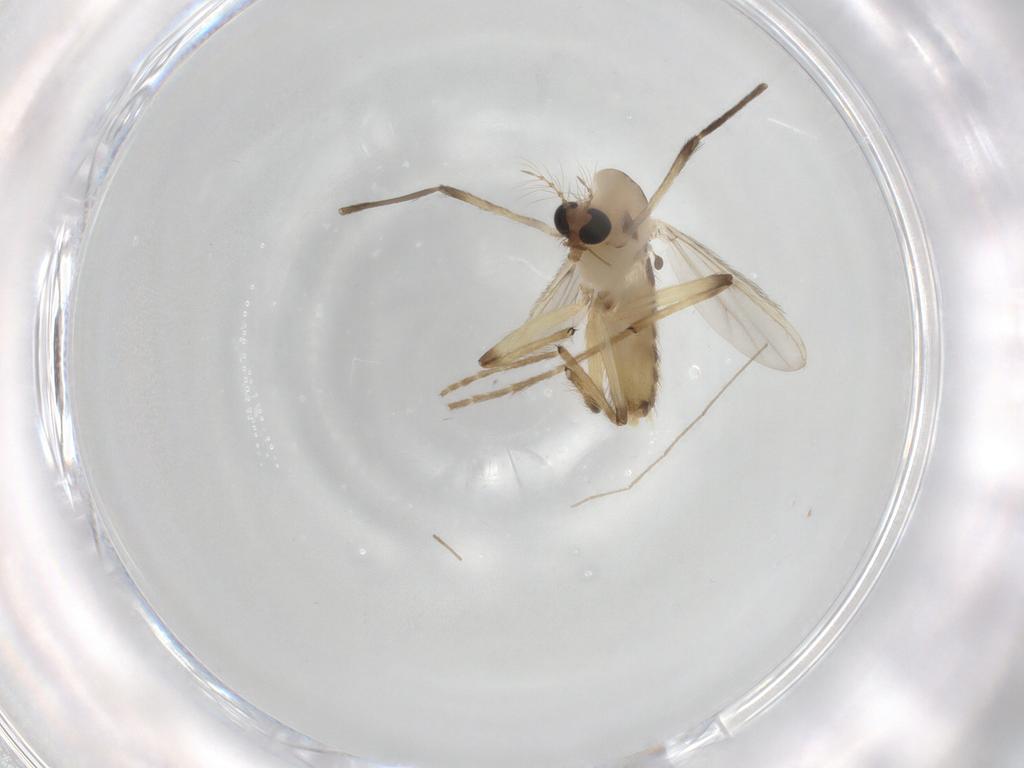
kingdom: Animalia
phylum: Arthropoda
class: Insecta
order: Diptera
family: Chironomidae
